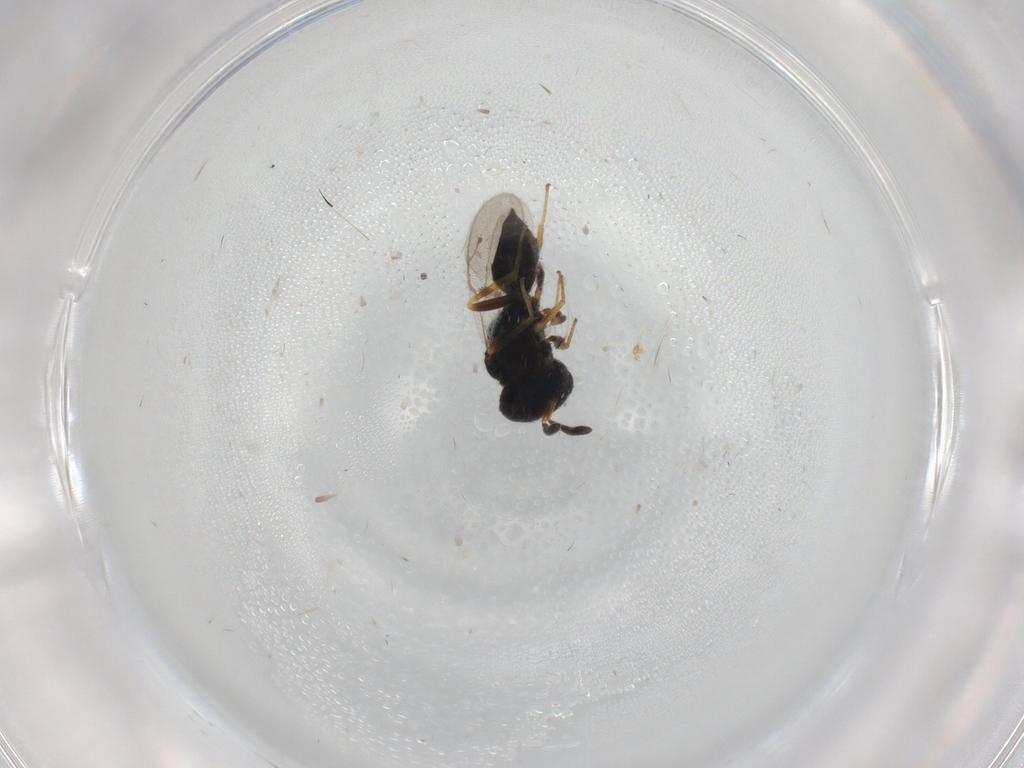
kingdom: Animalia
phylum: Arthropoda
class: Insecta
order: Hymenoptera
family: Pteromalidae
